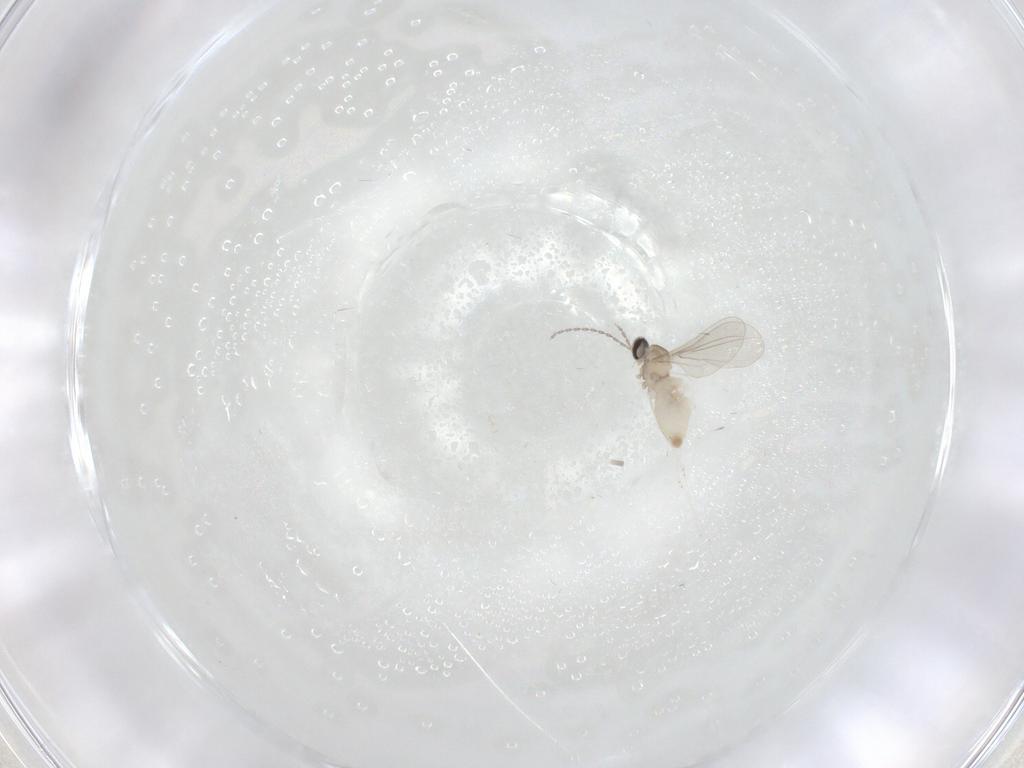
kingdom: Animalia
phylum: Arthropoda
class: Insecta
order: Diptera
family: Cecidomyiidae
